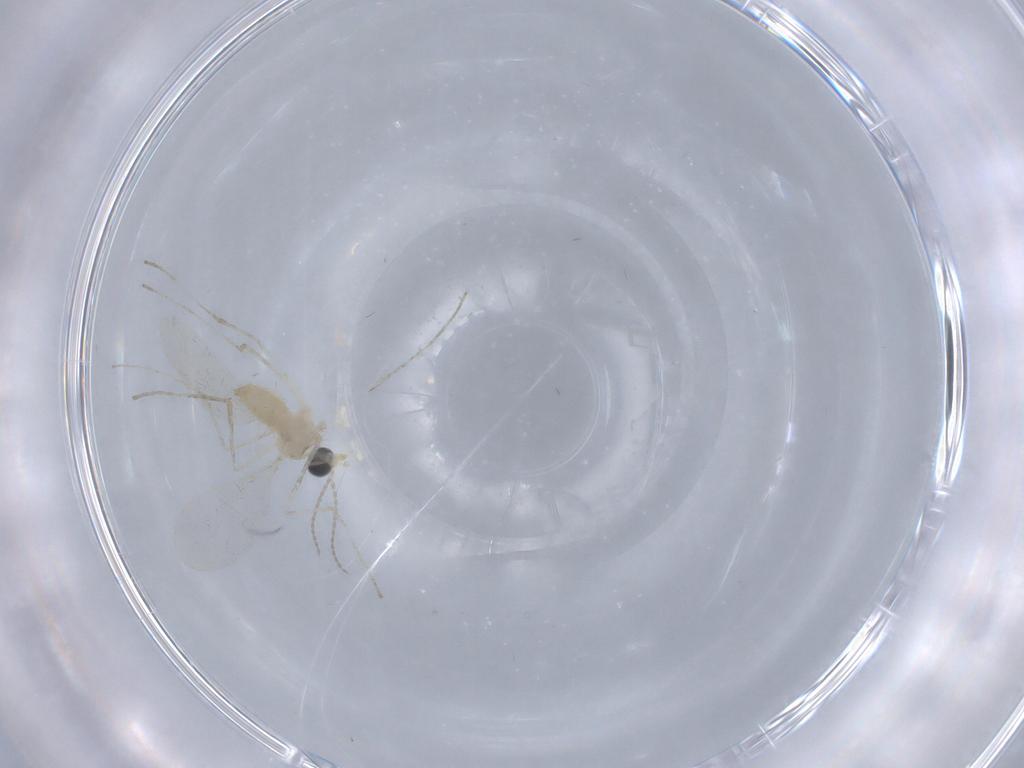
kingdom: Animalia
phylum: Arthropoda
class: Insecta
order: Diptera
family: Cecidomyiidae
